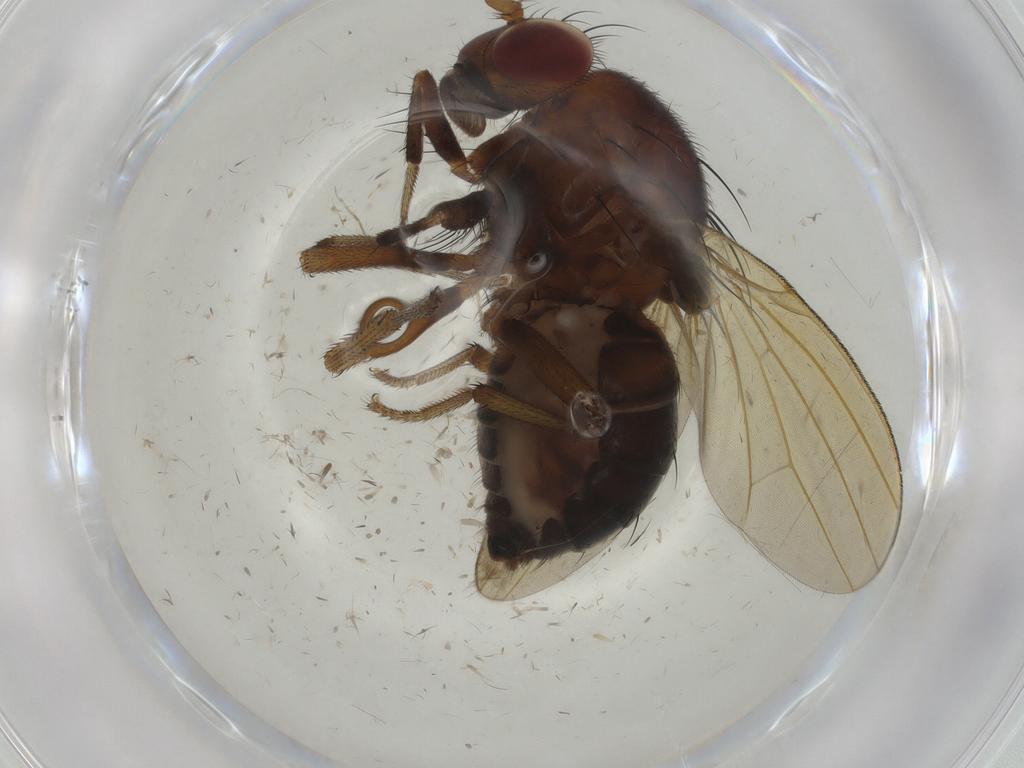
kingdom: Animalia
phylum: Arthropoda
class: Insecta
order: Diptera
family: Chironomidae
